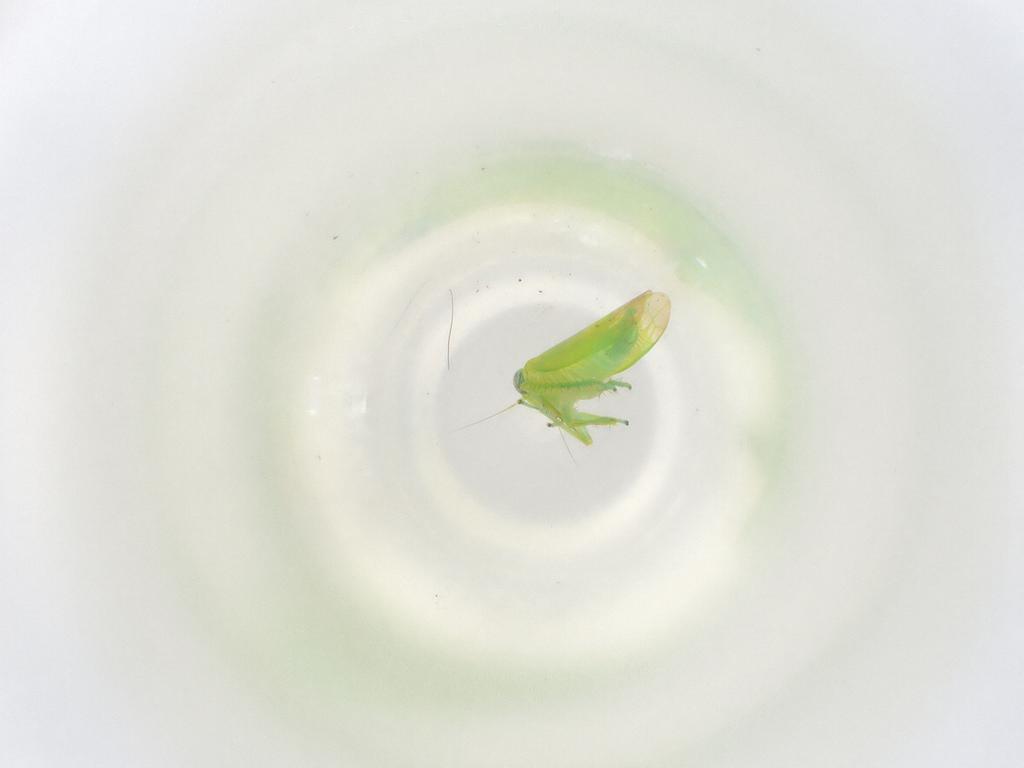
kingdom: Animalia
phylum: Arthropoda
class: Insecta
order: Hemiptera
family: Cicadellidae
